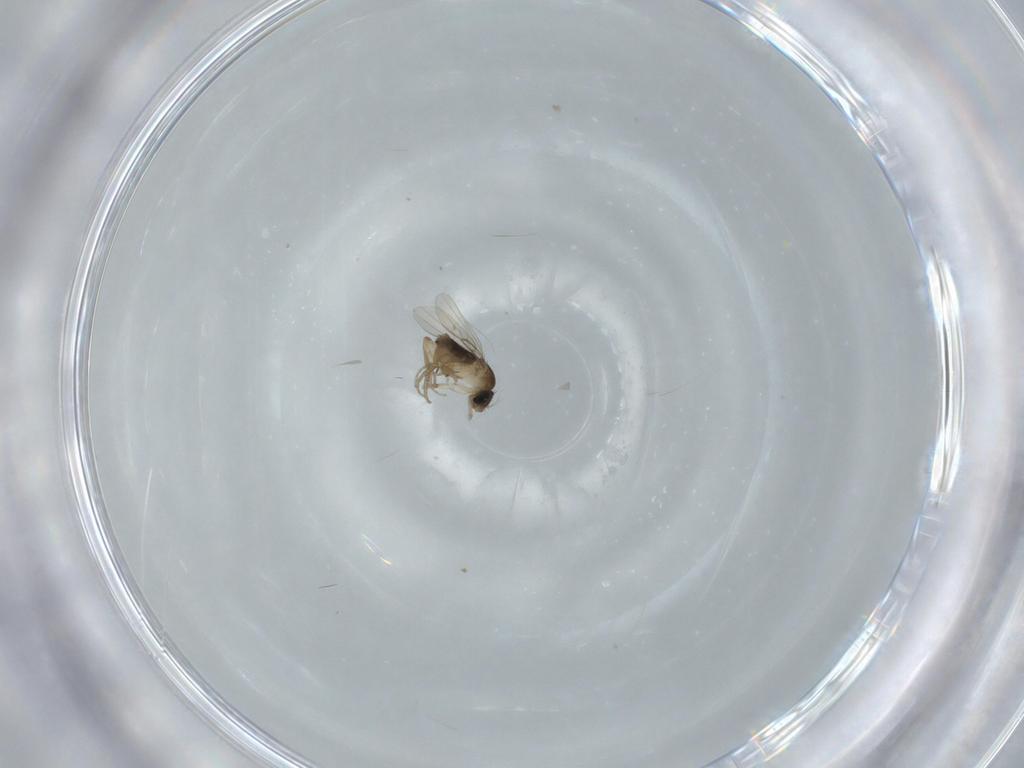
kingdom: Animalia
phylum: Arthropoda
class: Insecta
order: Diptera
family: Phoridae
